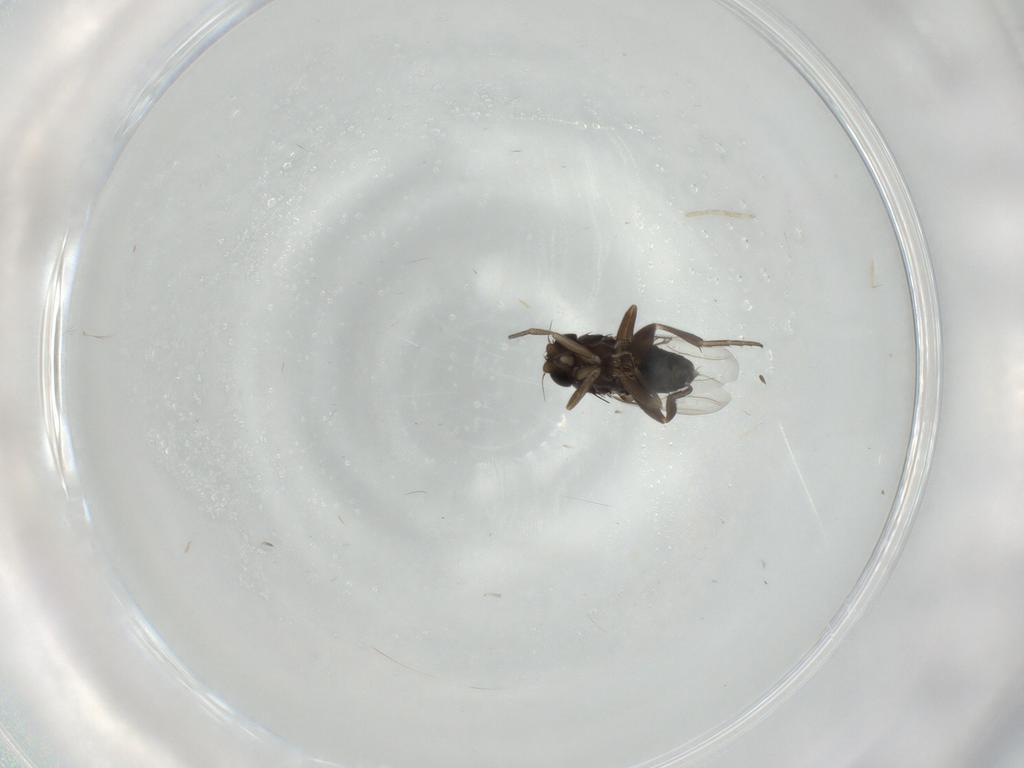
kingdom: Animalia
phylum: Arthropoda
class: Insecta
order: Diptera
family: Phoridae
